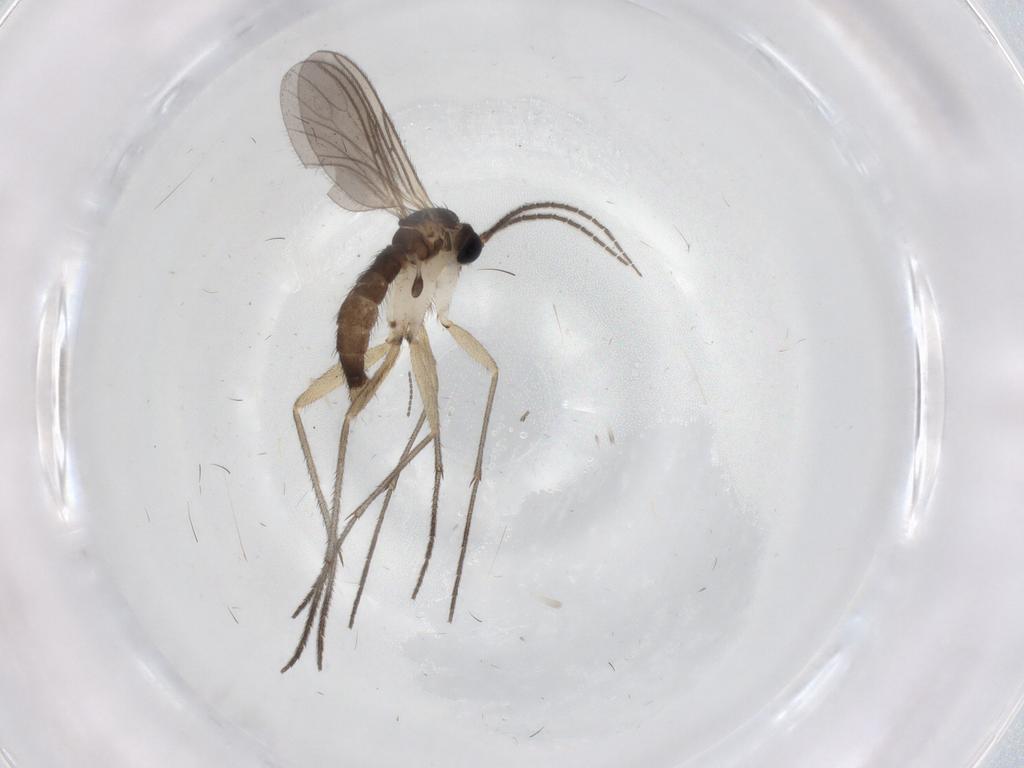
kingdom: Animalia
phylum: Arthropoda
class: Insecta
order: Diptera
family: Sciaridae
